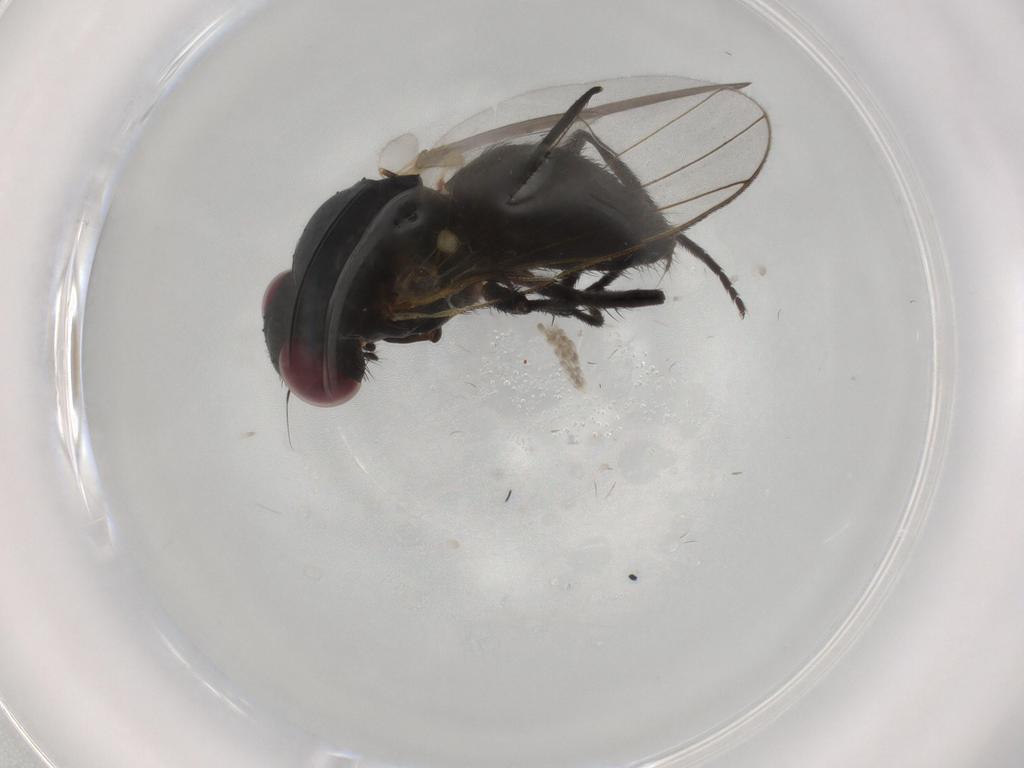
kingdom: Animalia
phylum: Arthropoda
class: Insecta
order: Diptera
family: Fannia
